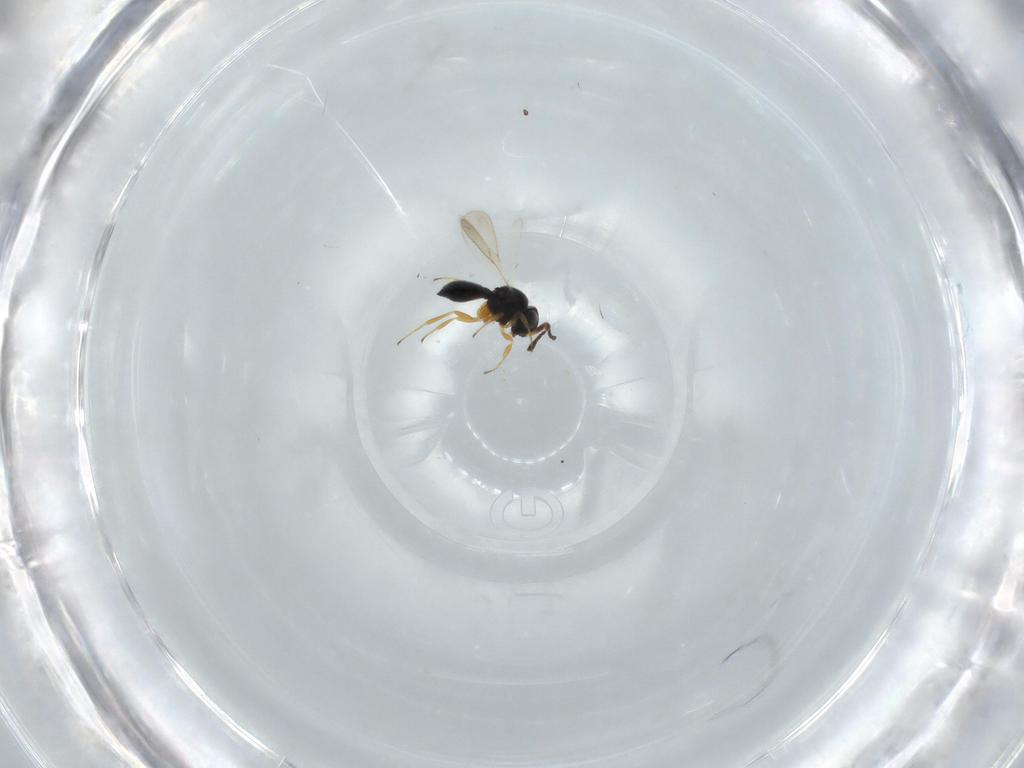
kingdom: Animalia
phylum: Arthropoda
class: Insecta
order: Hymenoptera
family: Scelionidae
